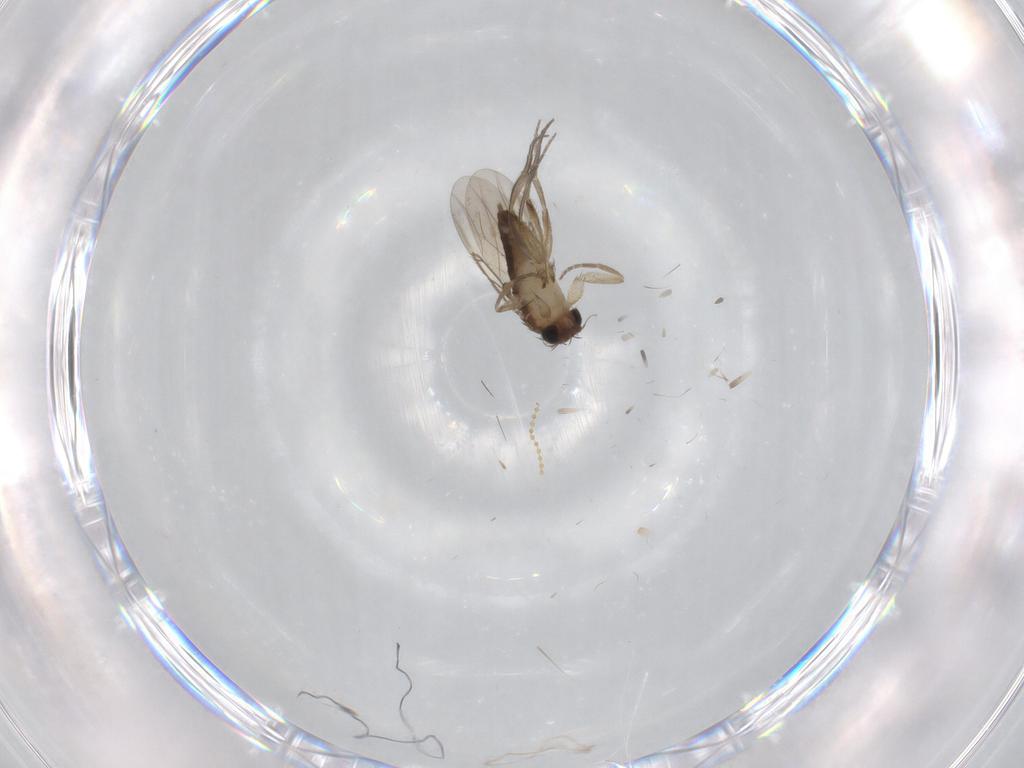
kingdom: Animalia
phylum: Arthropoda
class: Insecta
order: Diptera
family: Phoridae
